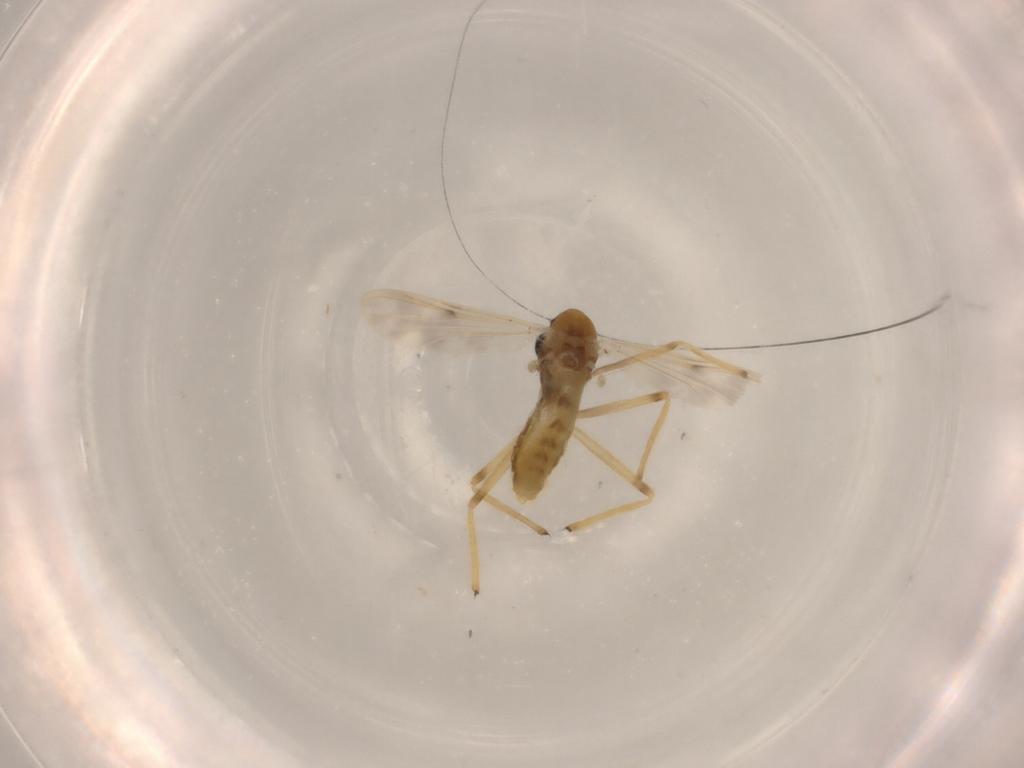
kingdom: Animalia
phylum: Arthropoda
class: Insecta
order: Diptera
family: Chironomidae
